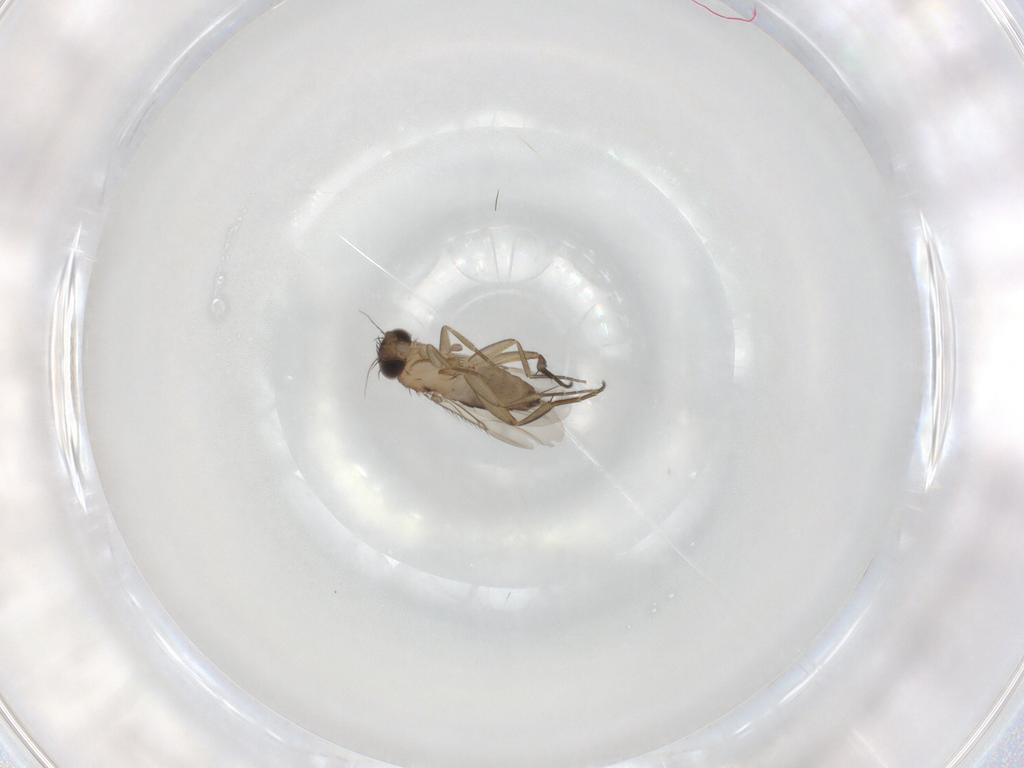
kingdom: Animalia
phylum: Arthropoda
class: Insecta
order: Diptera
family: Phoridae
